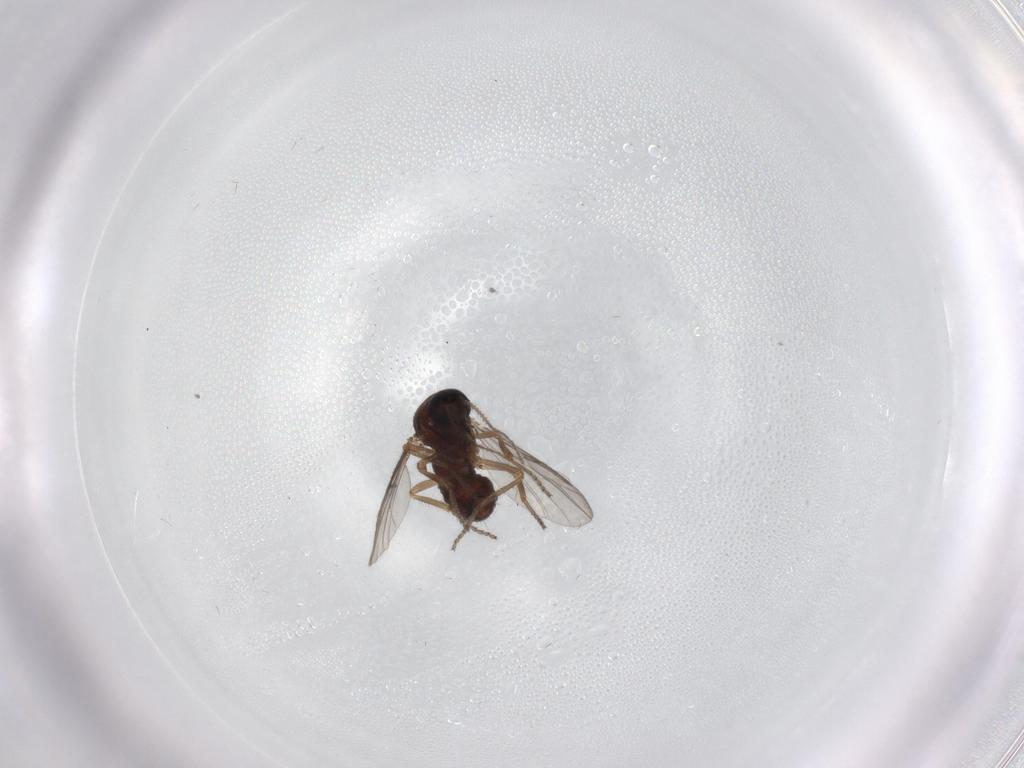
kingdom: Animalia
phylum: Arthropoda
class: Insecta
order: Diptera
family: Ceratopogonidae
